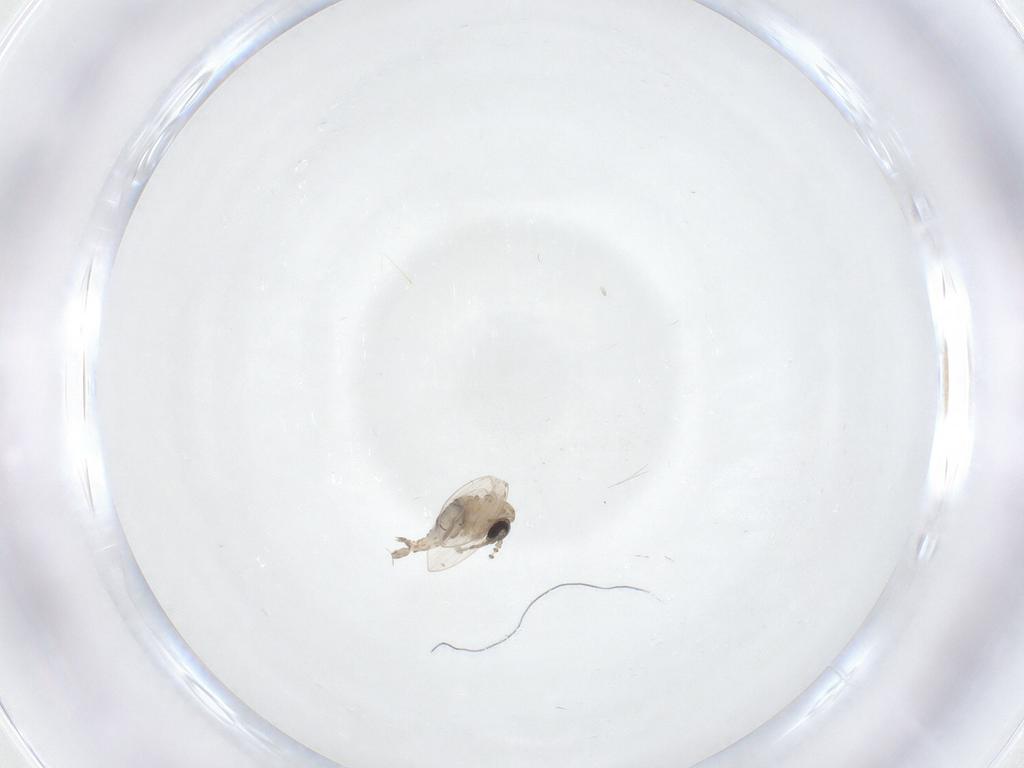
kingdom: Animalia
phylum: Arthropoda
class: Insecta
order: Diptera
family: Psychodidae
